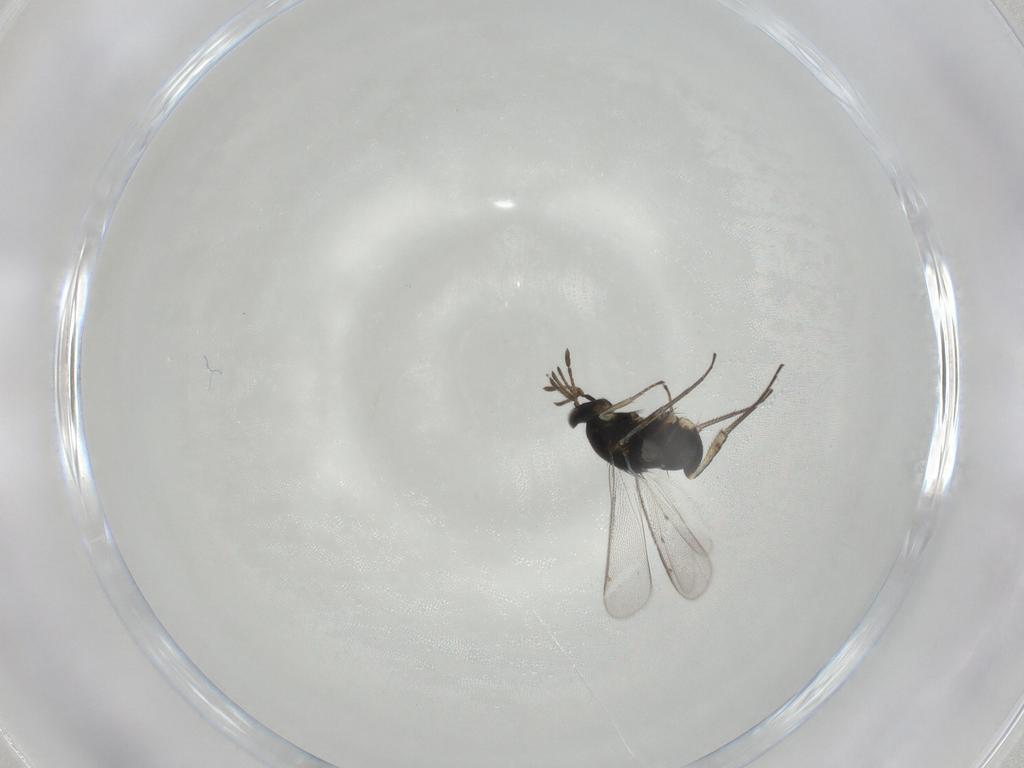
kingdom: Animalia
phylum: Arthropoda
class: Insecta
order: Hymenoptera
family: Eulophidae
